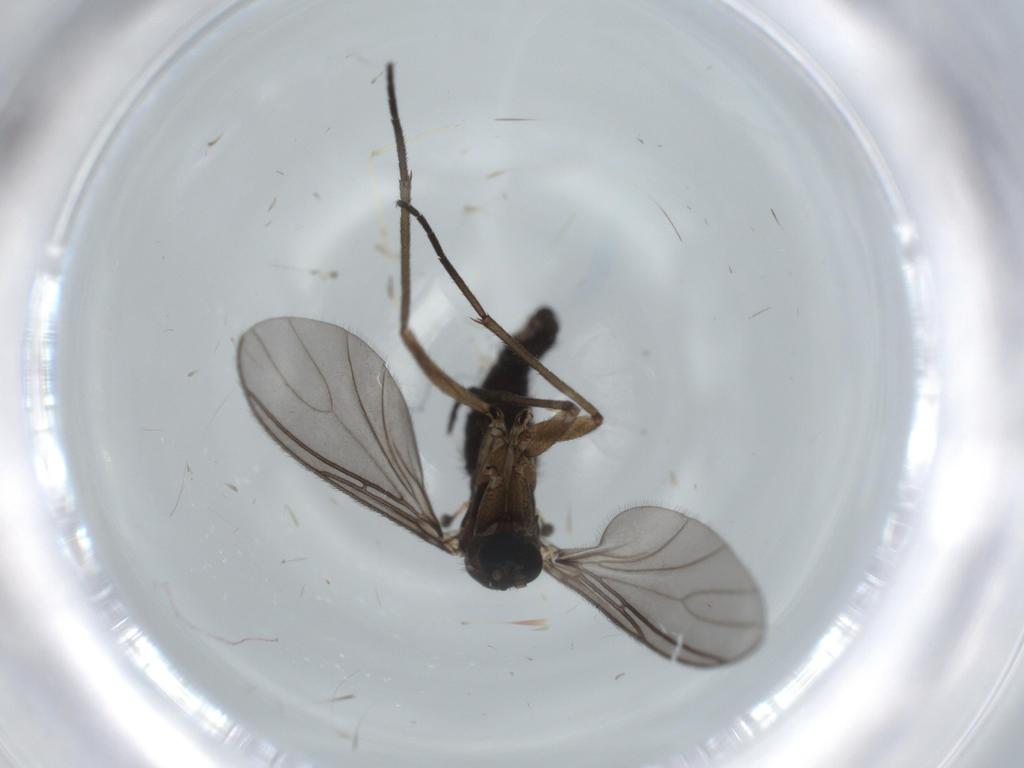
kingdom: Animalia
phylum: Arthropoda
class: Insecta
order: Diptera
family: Sciaridae
